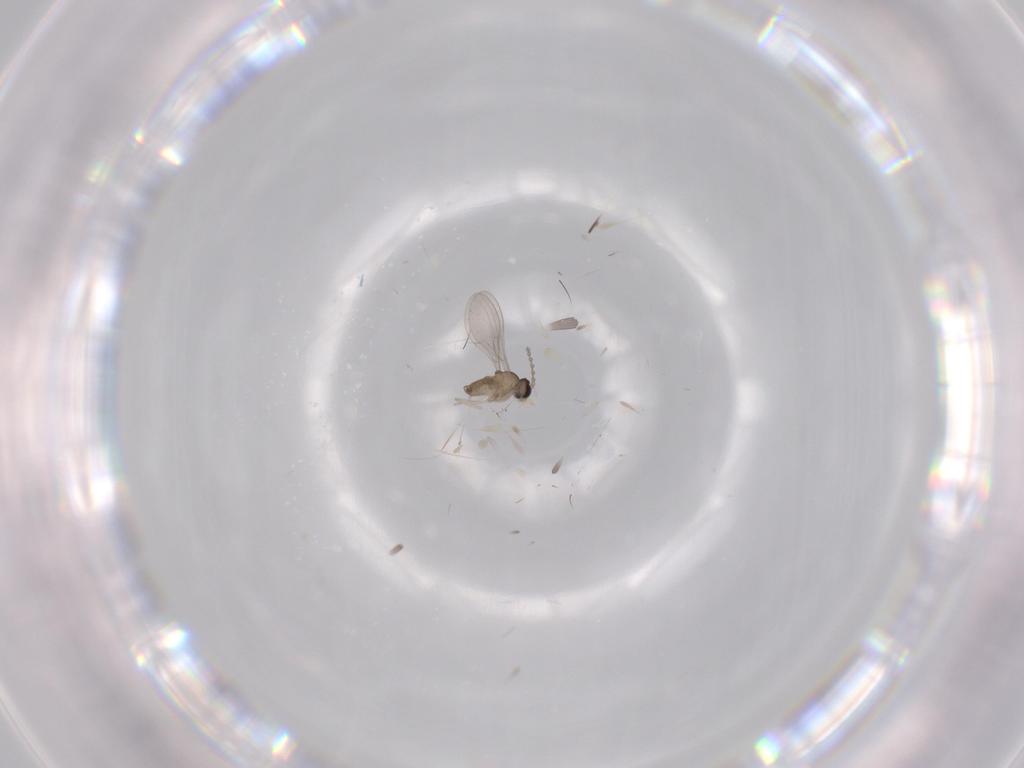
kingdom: Animalia
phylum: Arthropoda
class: Insecta
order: Diptera
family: Cecidomyiidae
